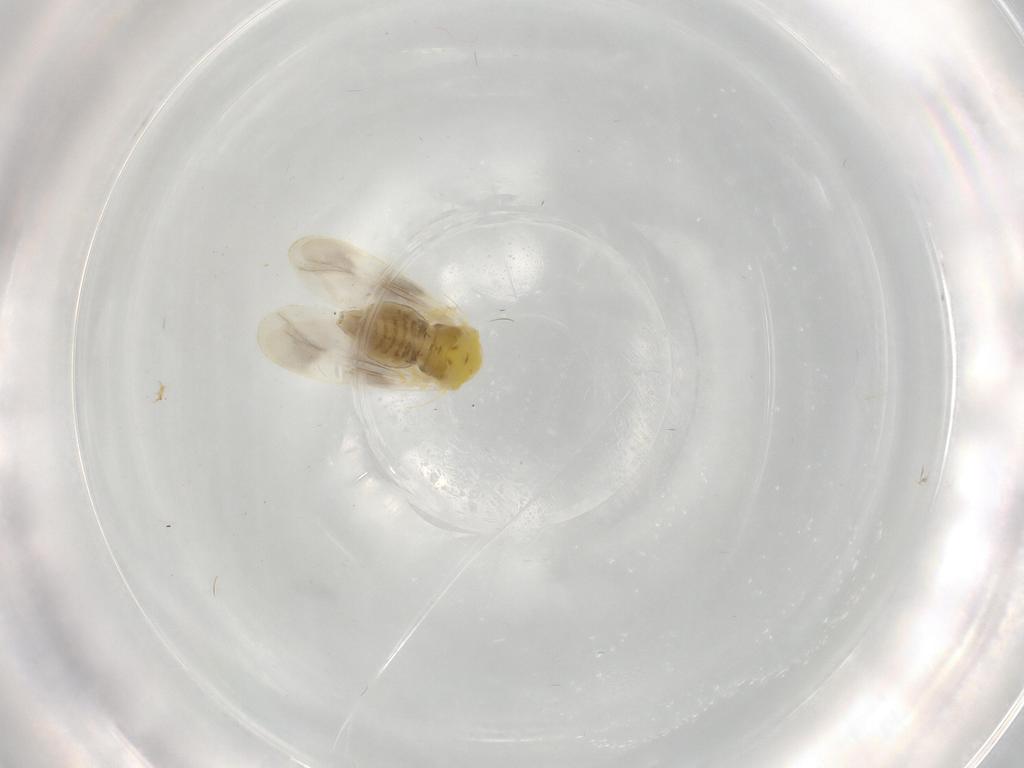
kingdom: Animalia
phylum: Arthropoda
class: Insecta
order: Hemiptera
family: Aleyrodidae
